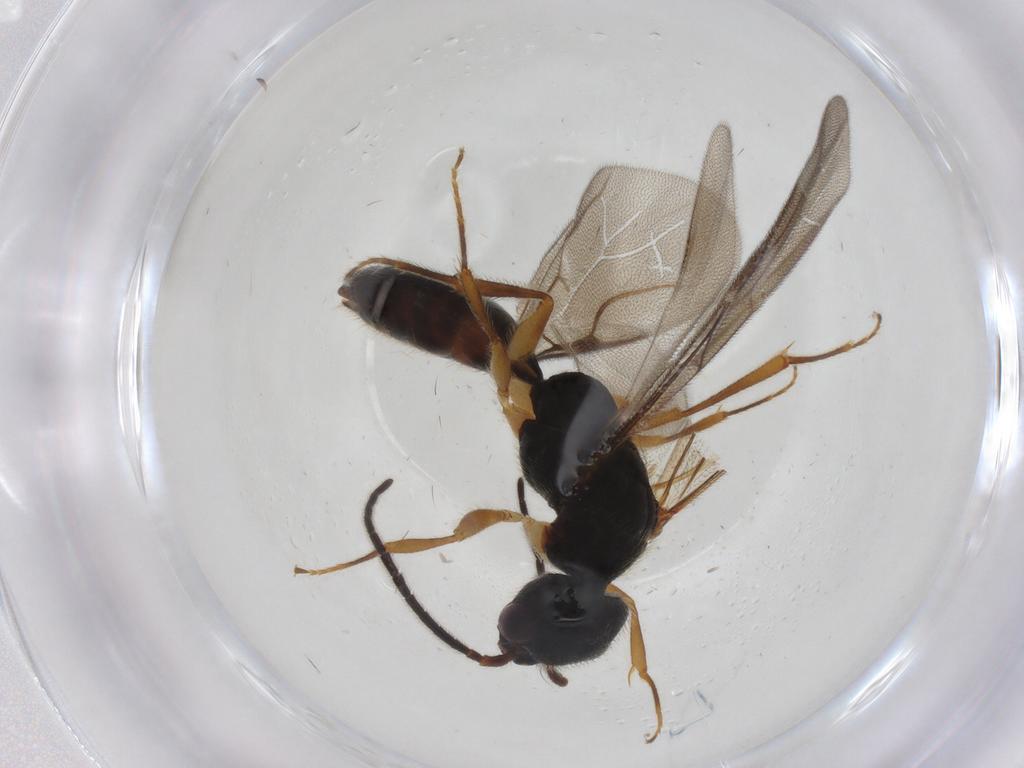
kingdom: Animalia
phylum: Arthropoda
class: Insecta
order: Hymenoptera
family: Bethylidae
